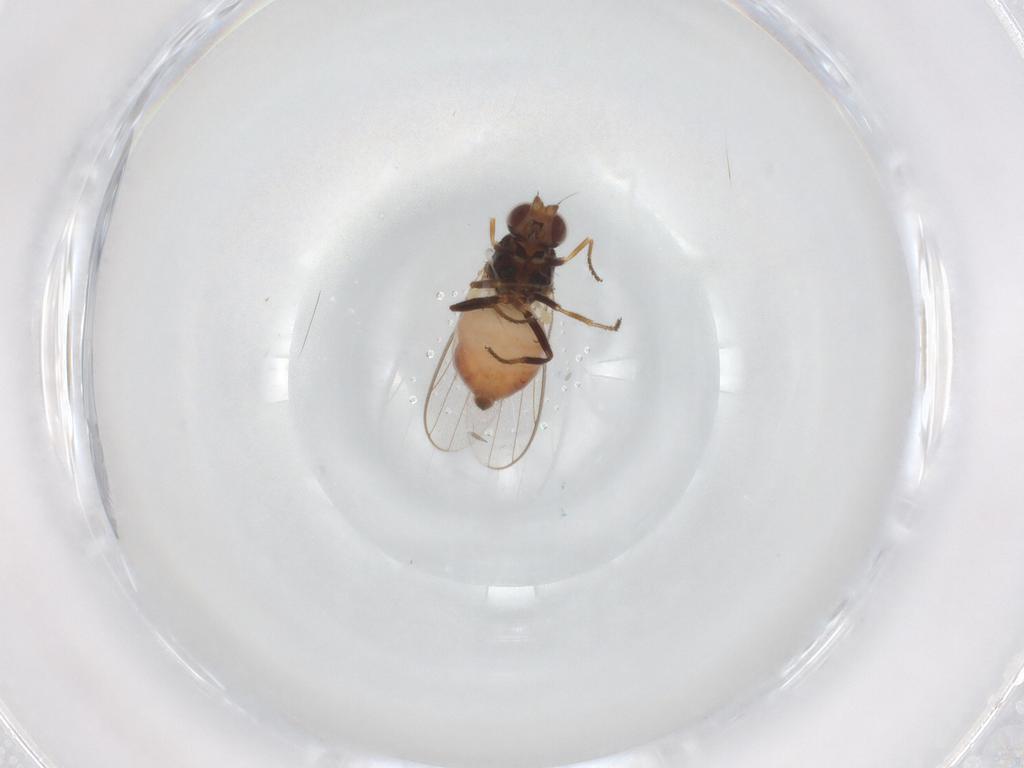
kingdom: Animalia
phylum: Arthropoda
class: Insecta
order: Diptera
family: Chloropidae
